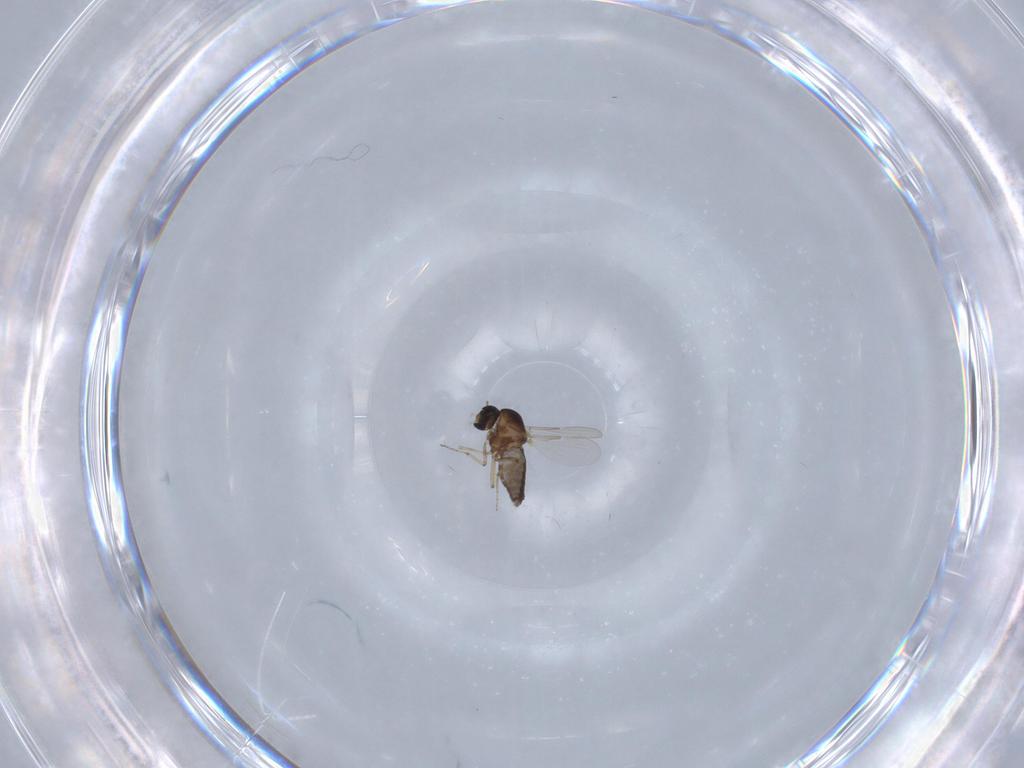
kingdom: Animalia
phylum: Arthropoda
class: Insecta
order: Diptera
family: Ceratopogonidae
